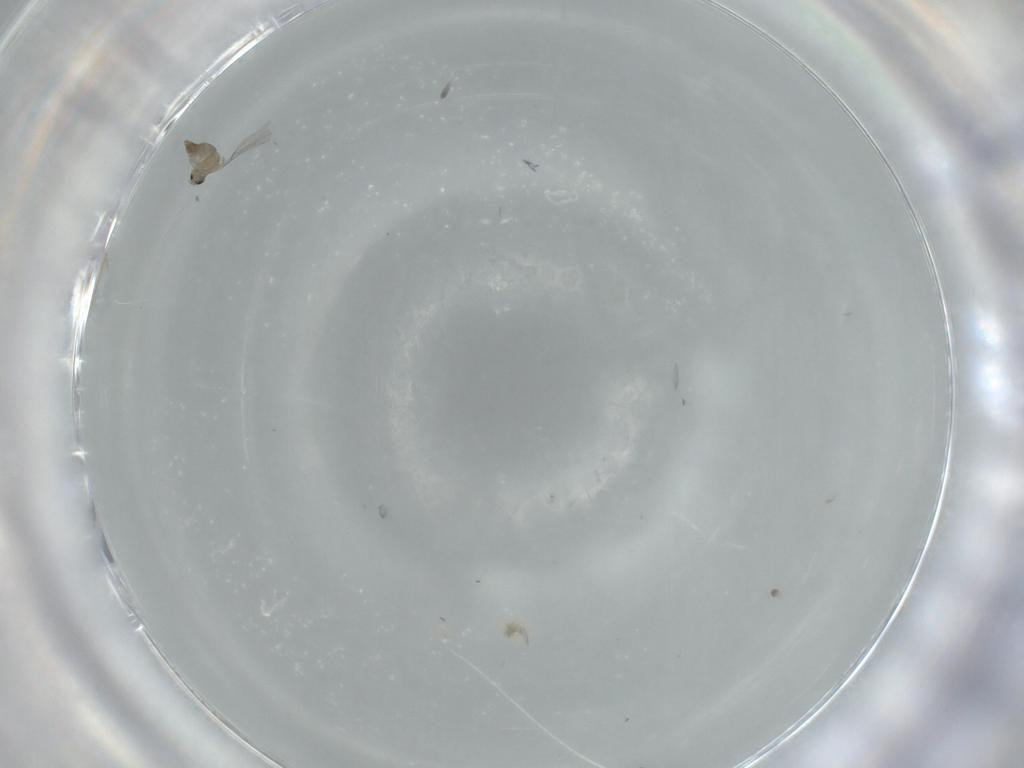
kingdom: Animalia
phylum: Arthropoda
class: Insecta
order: Diptera
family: Cecidomyiidae
